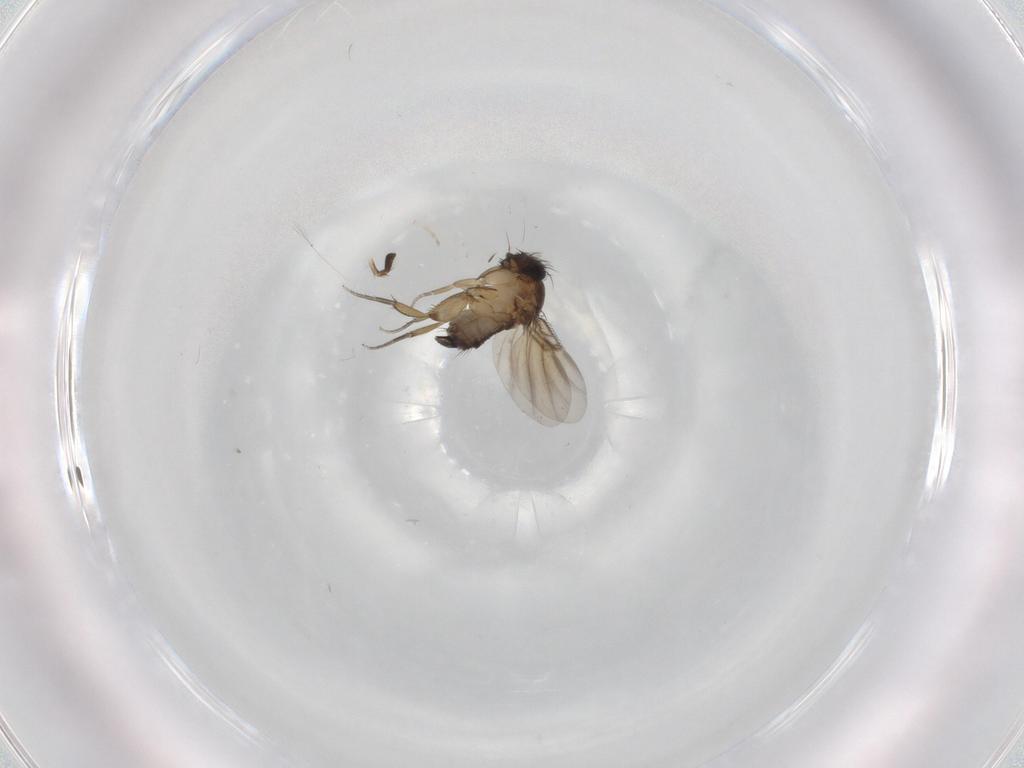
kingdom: Animalia
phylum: Arthropoda
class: Insecta
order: Diptera
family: Phoridae
